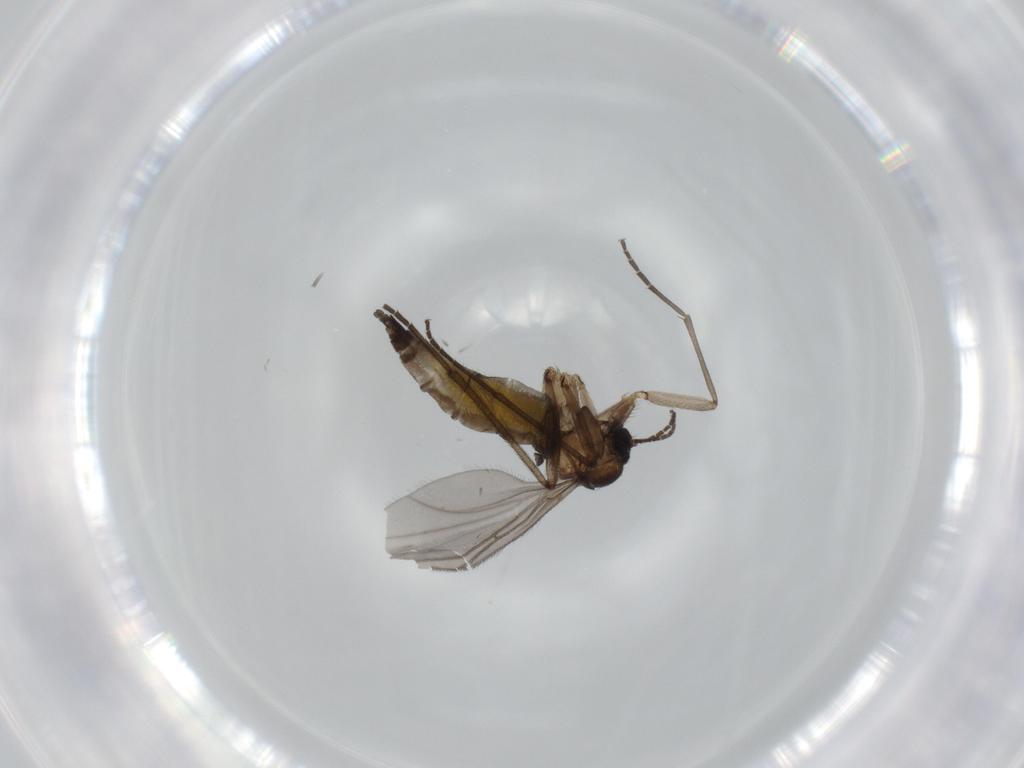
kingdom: Animalia
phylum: Arthropoda
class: Insecta
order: Diptera
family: Sciaridae
